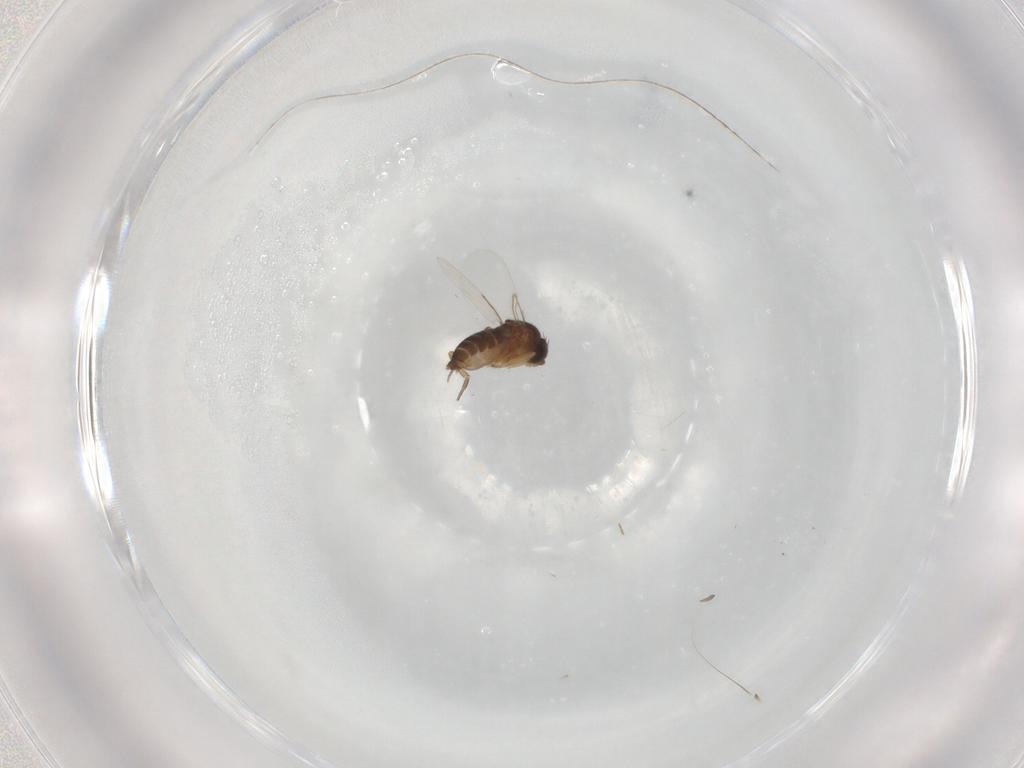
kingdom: Animalia
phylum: Arthropoda
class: Insecta
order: Diptera
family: Phoridae
